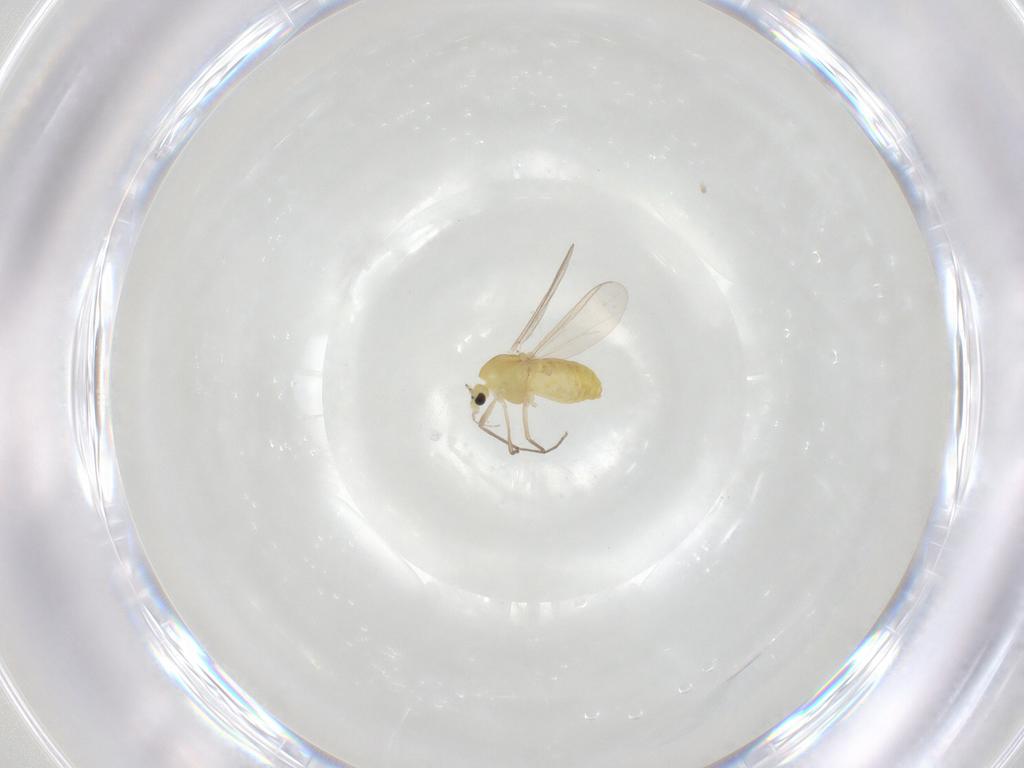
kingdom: Animalia
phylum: Arthropoda
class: Insecta
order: Diptera
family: Chironomidae
